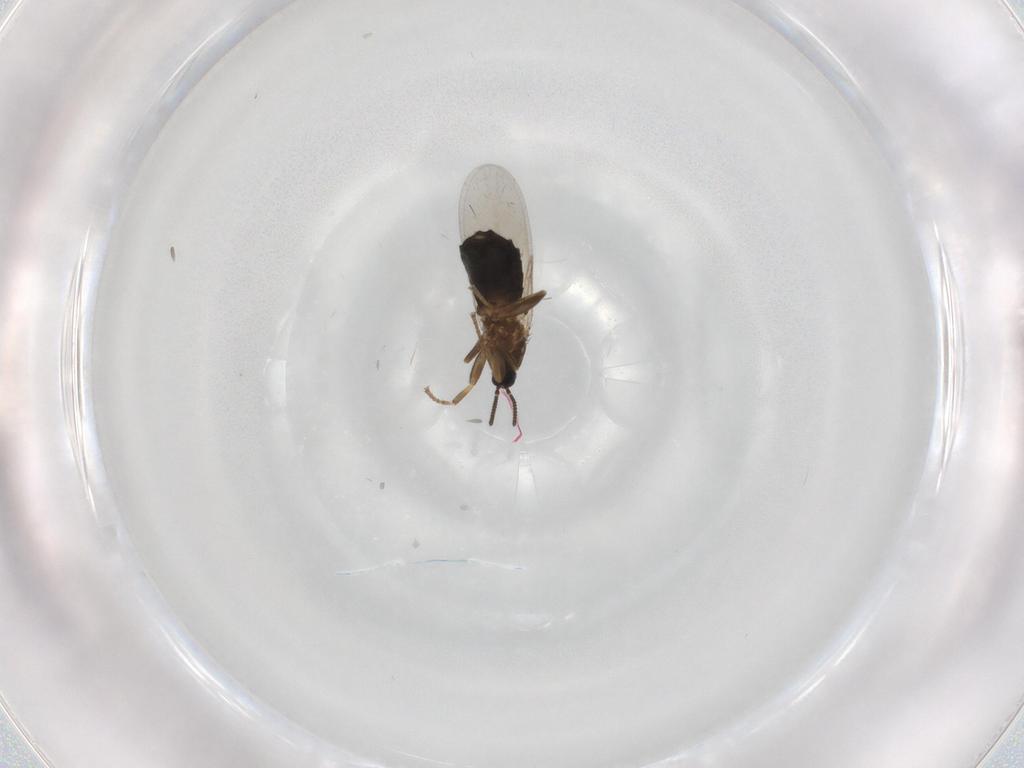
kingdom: Animalia
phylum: Arthropoda
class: Insecta
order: Diptera
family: Scatopsidae
